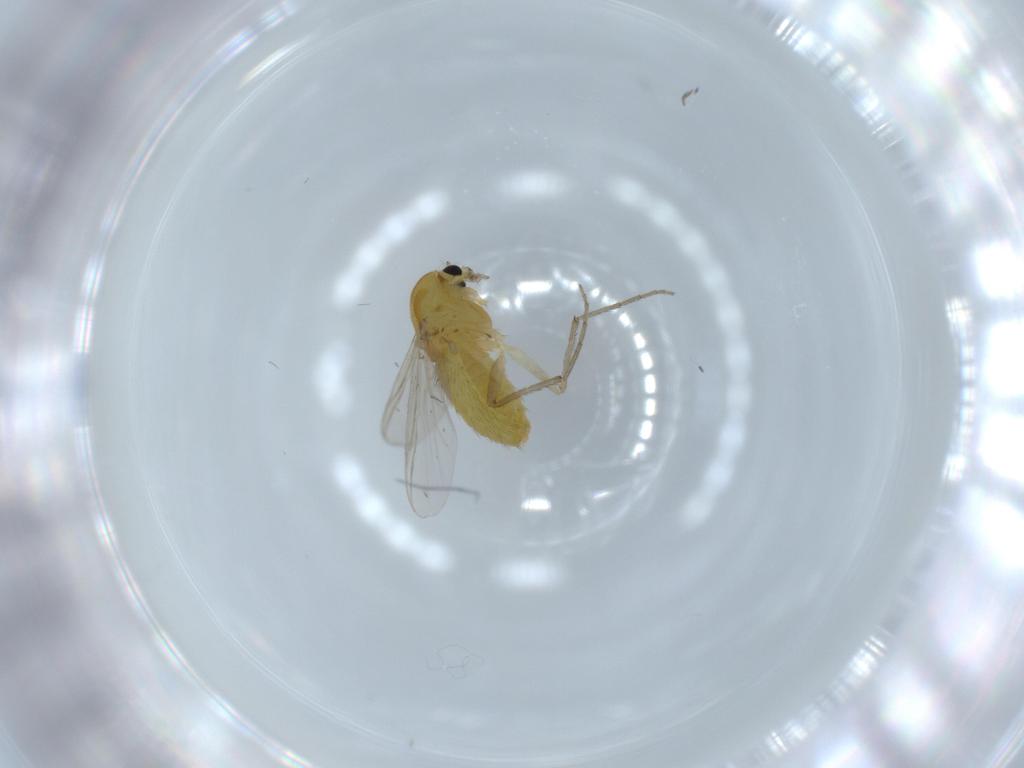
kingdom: Animalia
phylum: Arthropoda
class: Insecta
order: Diptera
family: Chironomidae
